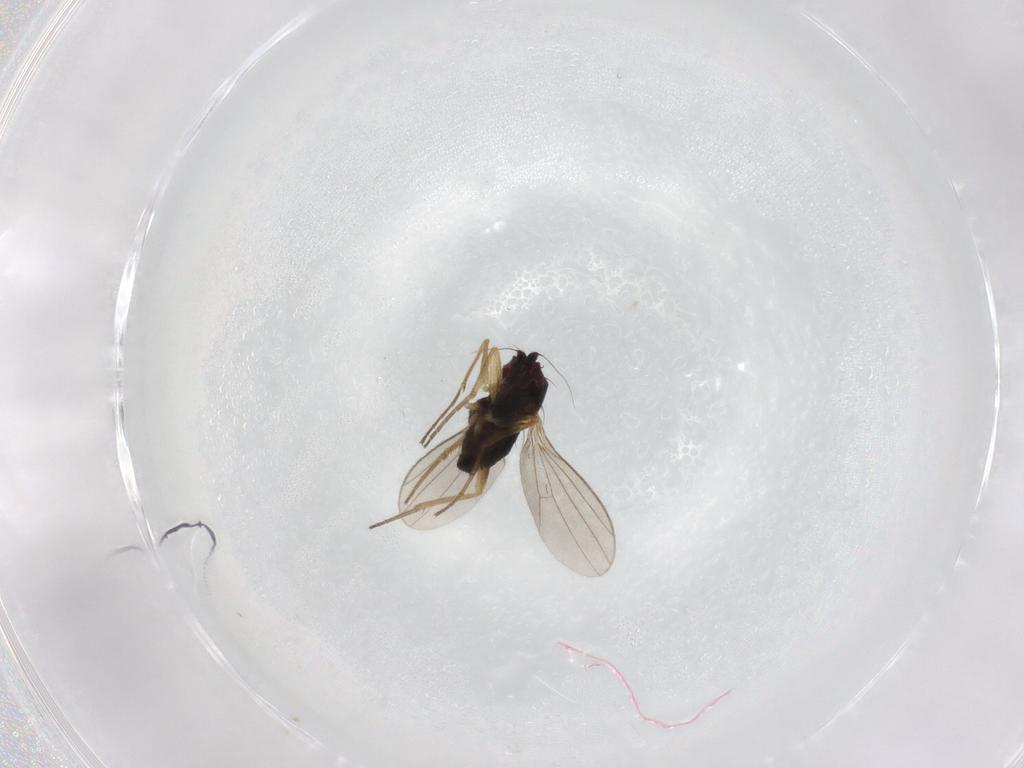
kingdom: Animalia
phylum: Arthropoda
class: Insecta
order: Diptera
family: Dolichopodidae
